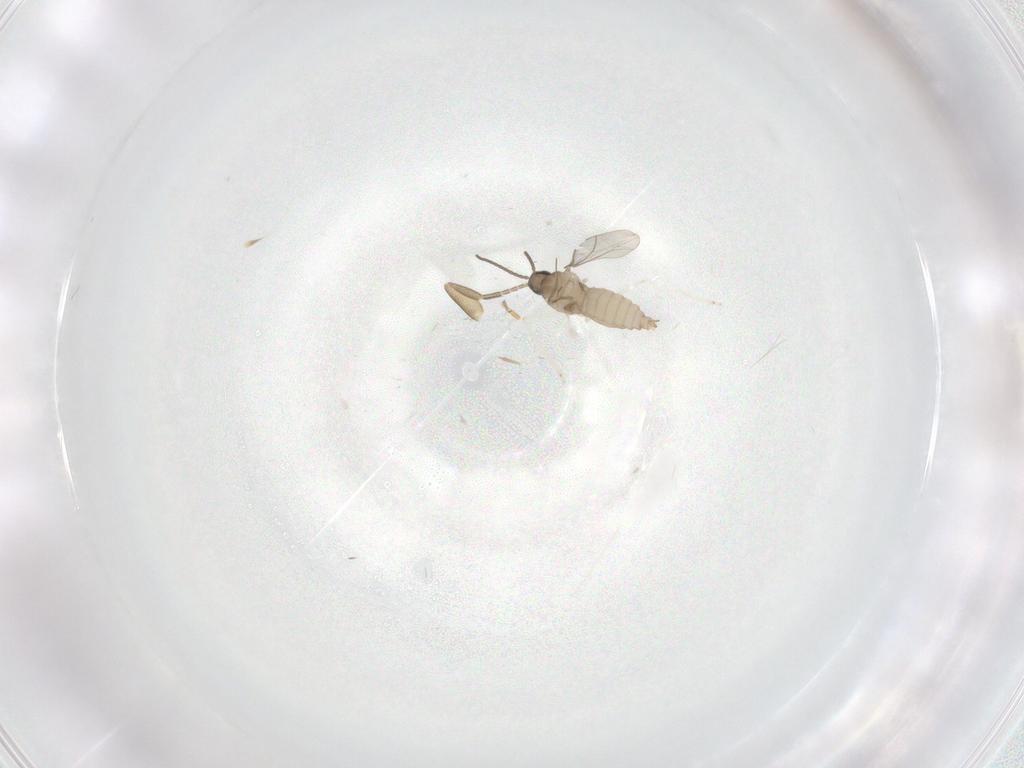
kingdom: Animalia
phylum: Arthropoda
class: Insecta
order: Diptera
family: Cecidomyiidae
